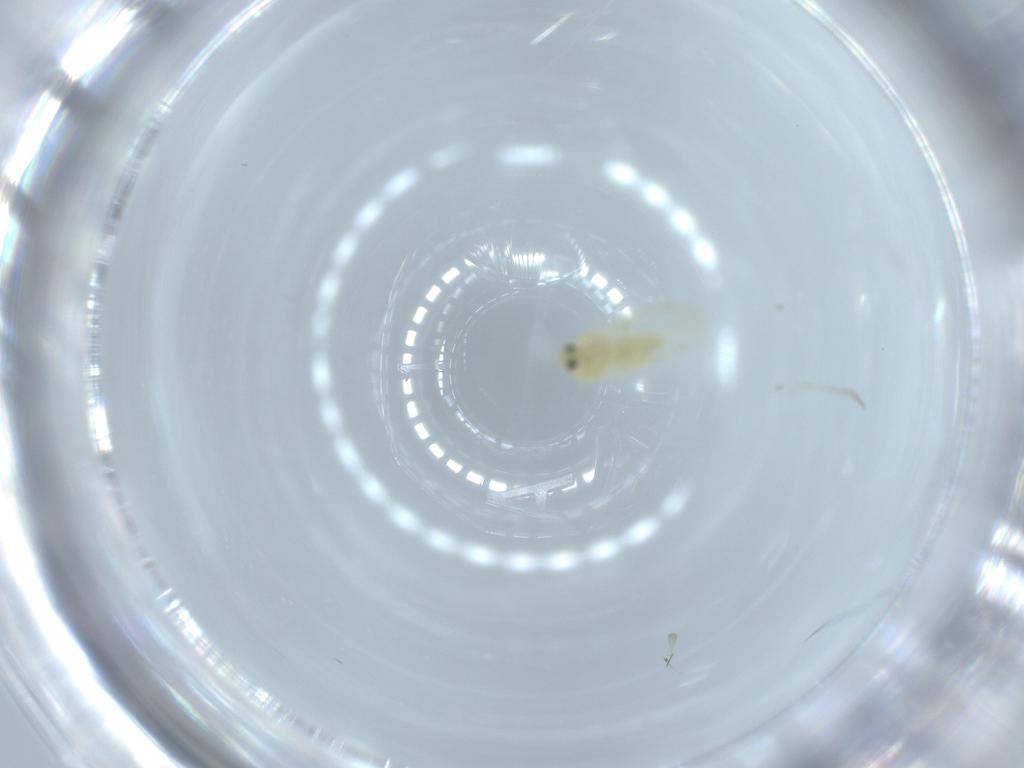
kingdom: Animalia
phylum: Arthropoda
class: Insecta
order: Hemiptera
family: Aleyrodidae
